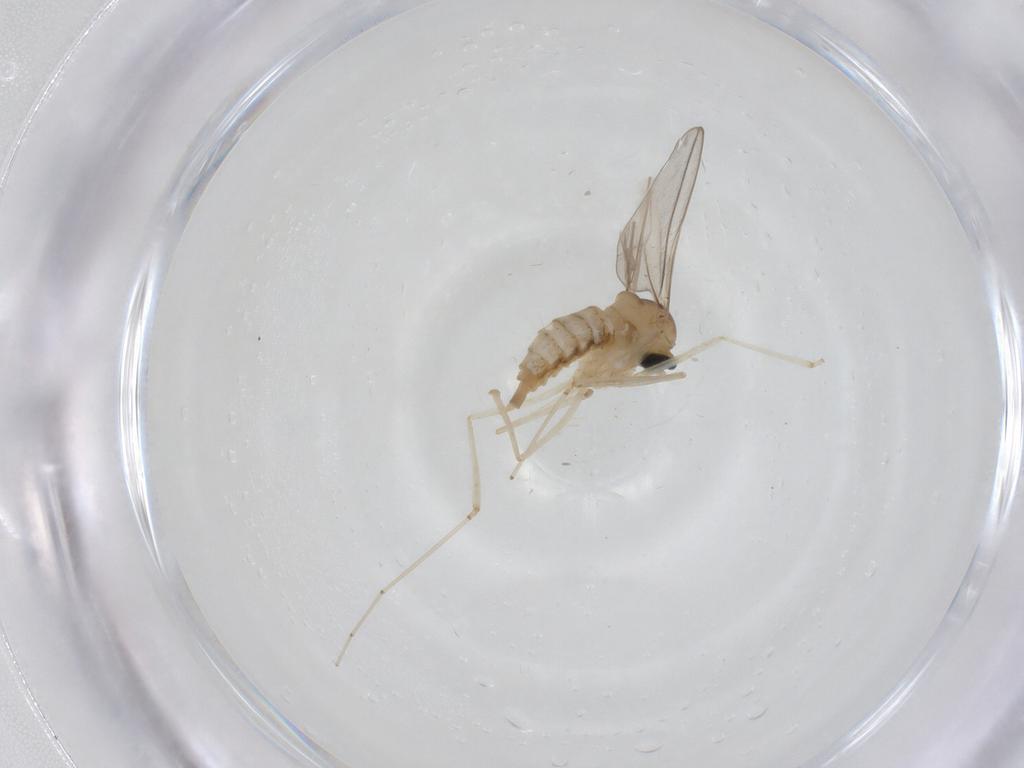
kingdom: Animalia
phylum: Arthropoda
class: Insecta
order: Diptera
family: Cecidomyiidae
